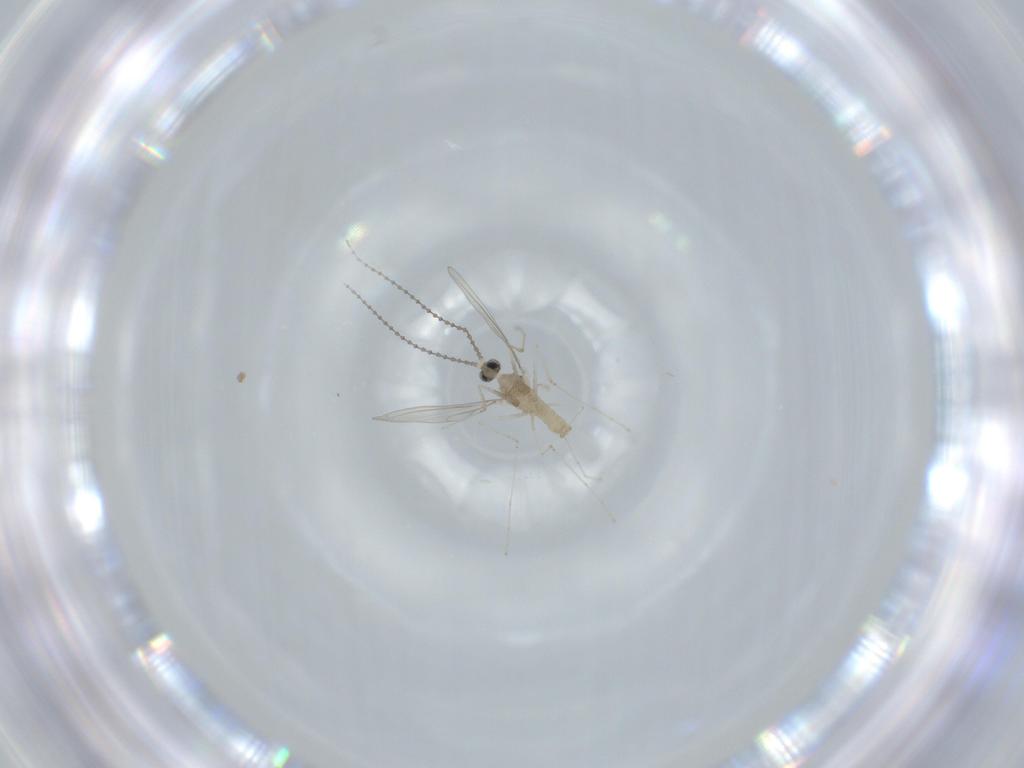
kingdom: Animalia
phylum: Arthropoda
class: Insecta
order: Diptera
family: Cecidomyiidae
